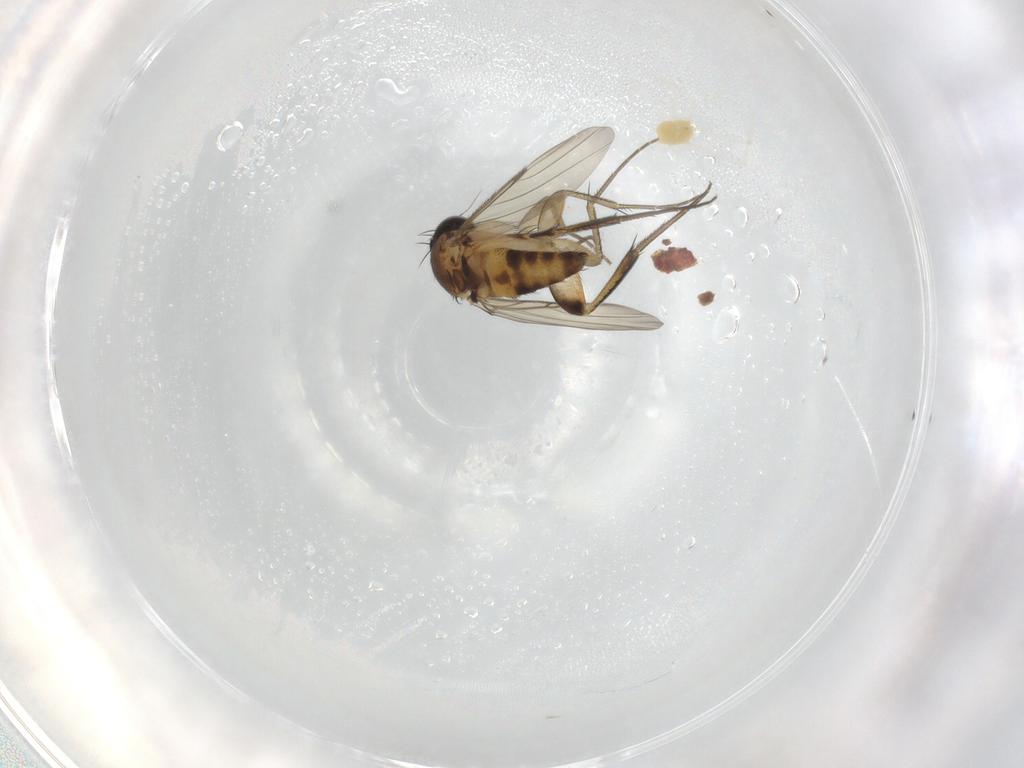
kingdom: Animalia
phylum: Arthropoda
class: Insecta
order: Diptera
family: Phoridae
